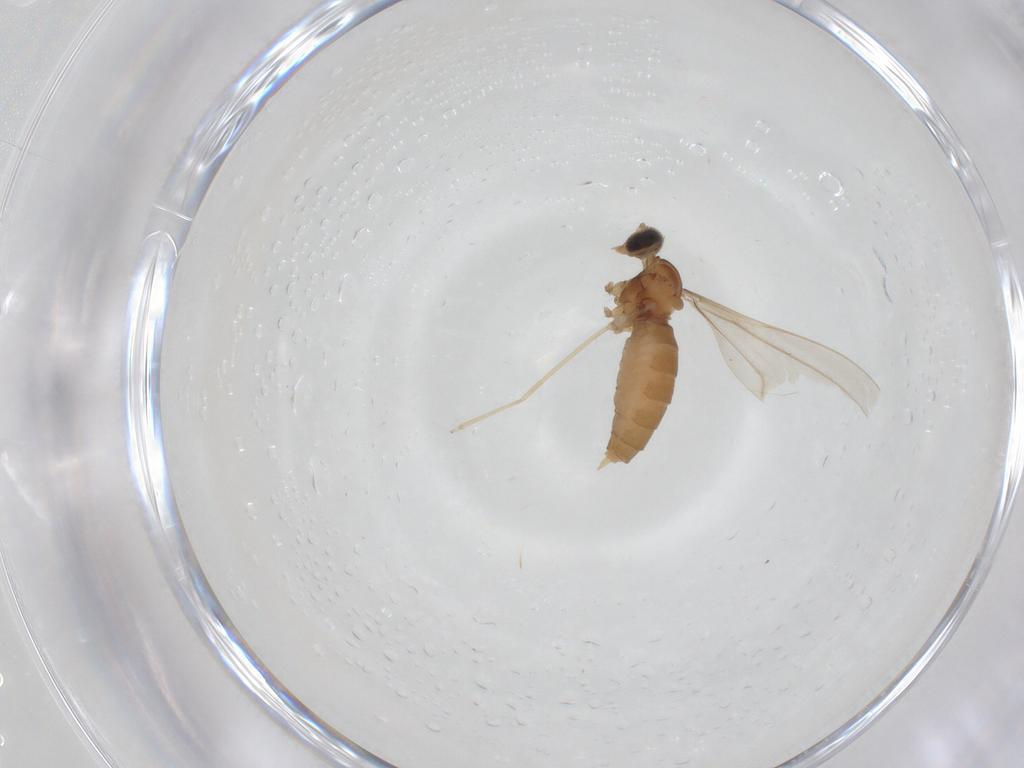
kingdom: Animalia
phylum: Arthropoda
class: Insecta
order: Diptera
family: Cecidomyiidae
